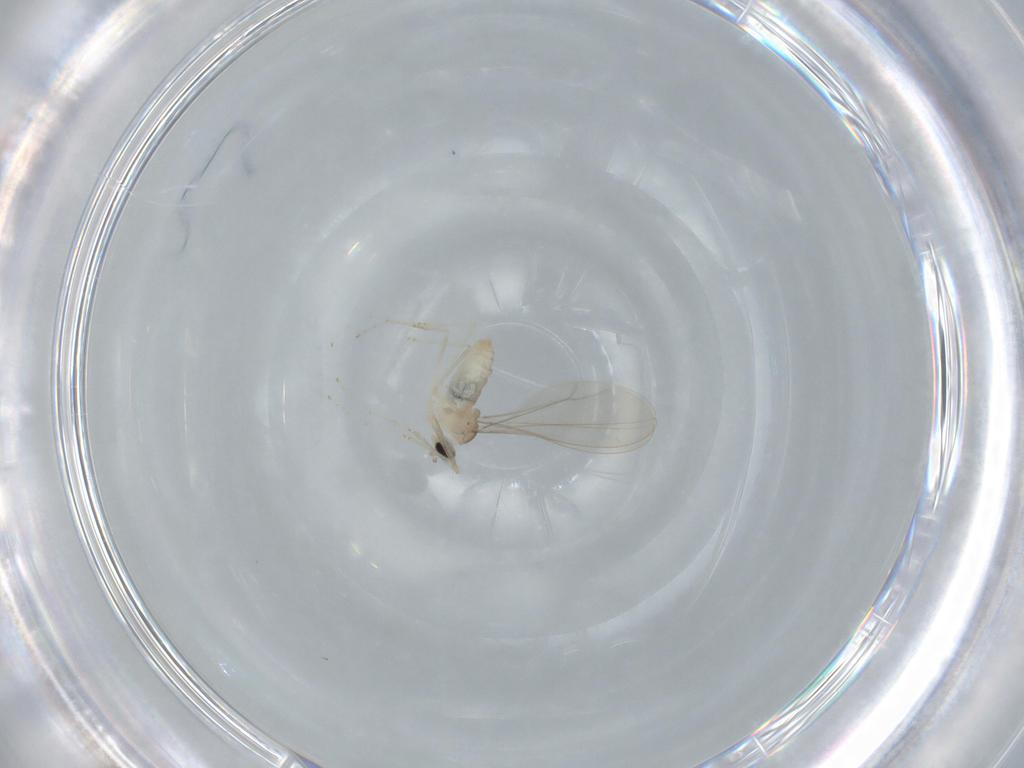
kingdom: Animalia
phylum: Arthropoda
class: Insecta
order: Diptera
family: Cecidomyiidae
